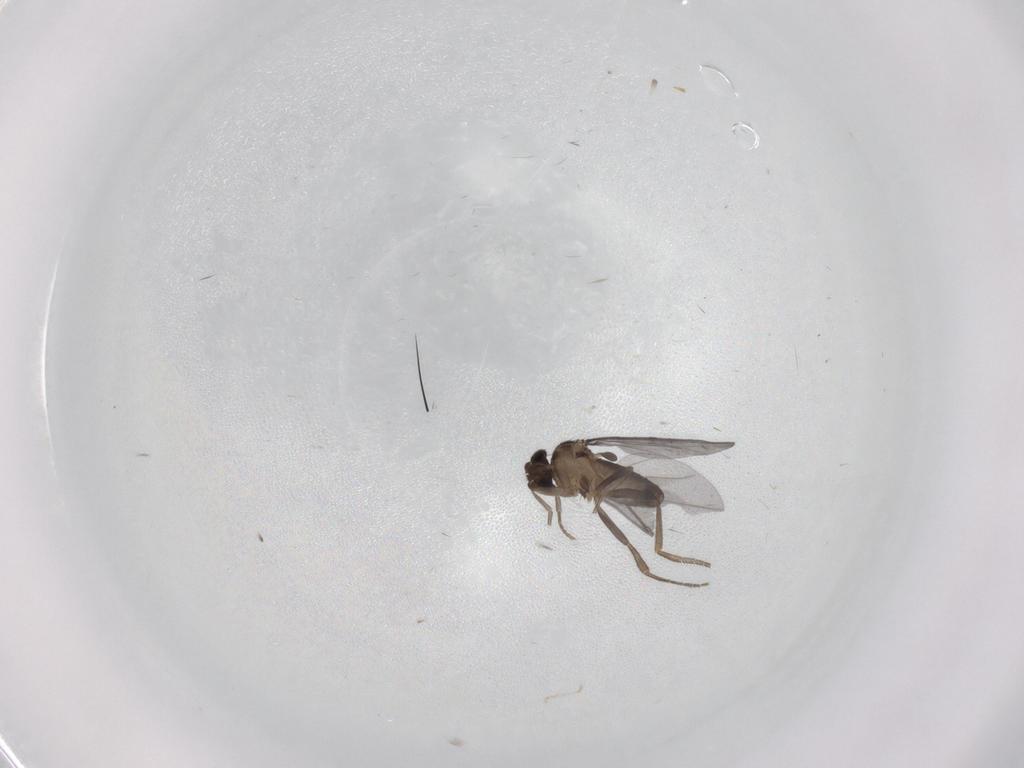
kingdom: Animalia
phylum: Arthropoda
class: Insecta
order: Diptera
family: Phoridae
